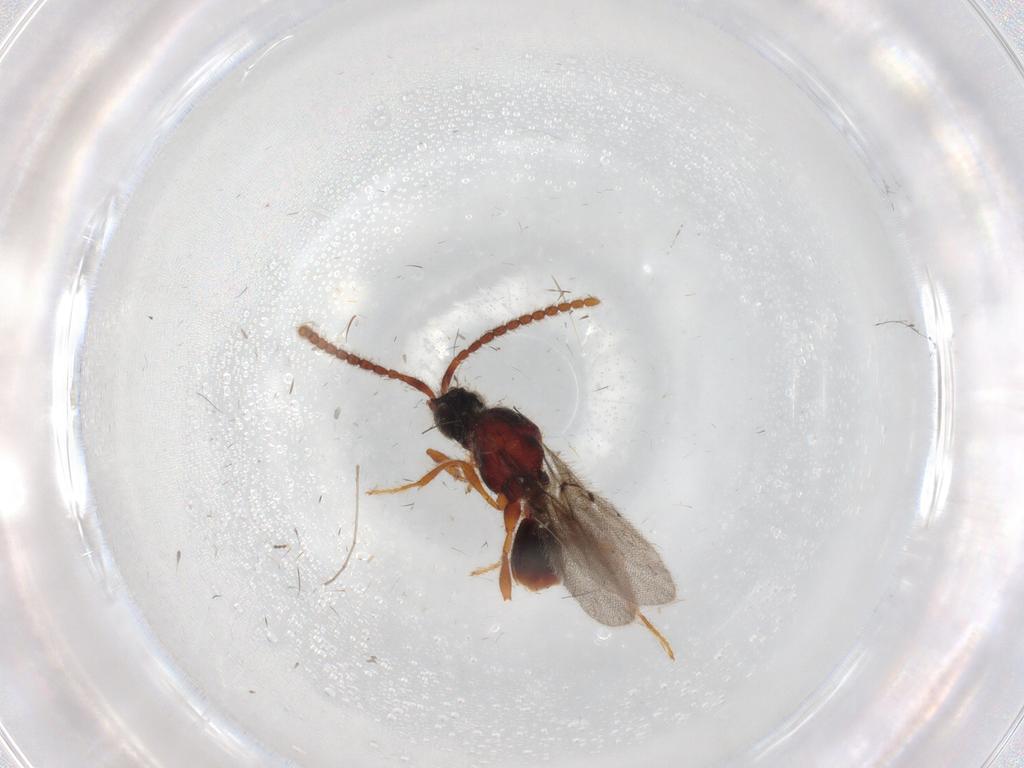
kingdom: Animalia
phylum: Arthropoda
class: Insecta
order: Hymenoptera
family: Diapriidae
